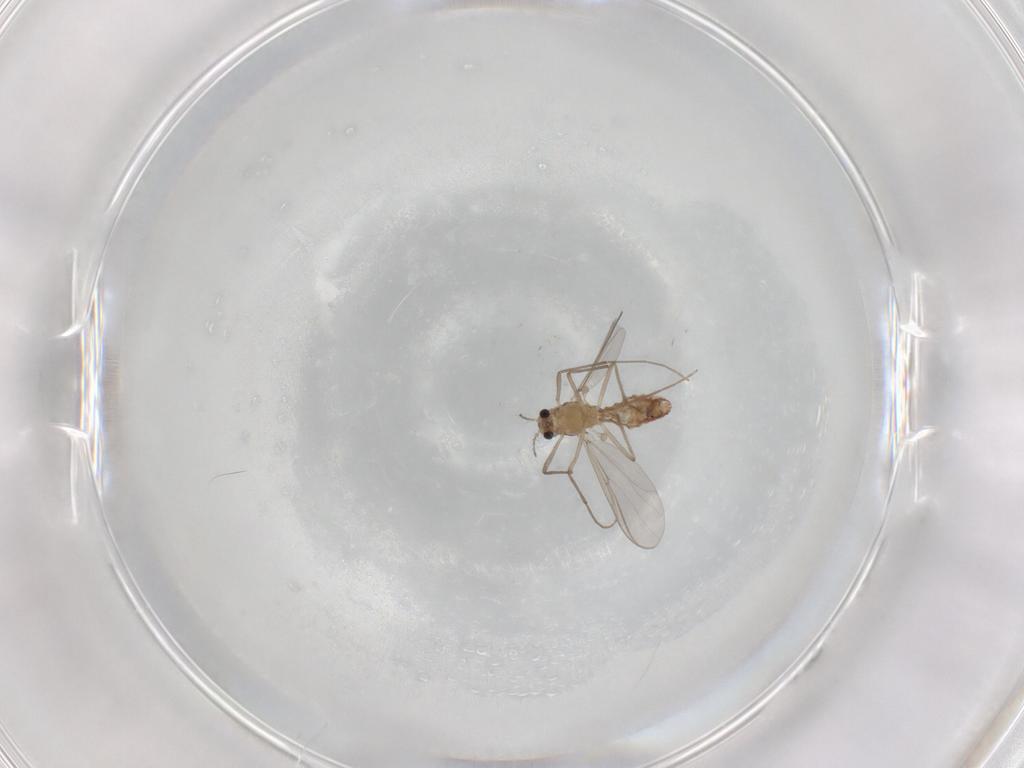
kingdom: Animalia
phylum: Arthropoda
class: Insecta
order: Diptera
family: Chironomidae
